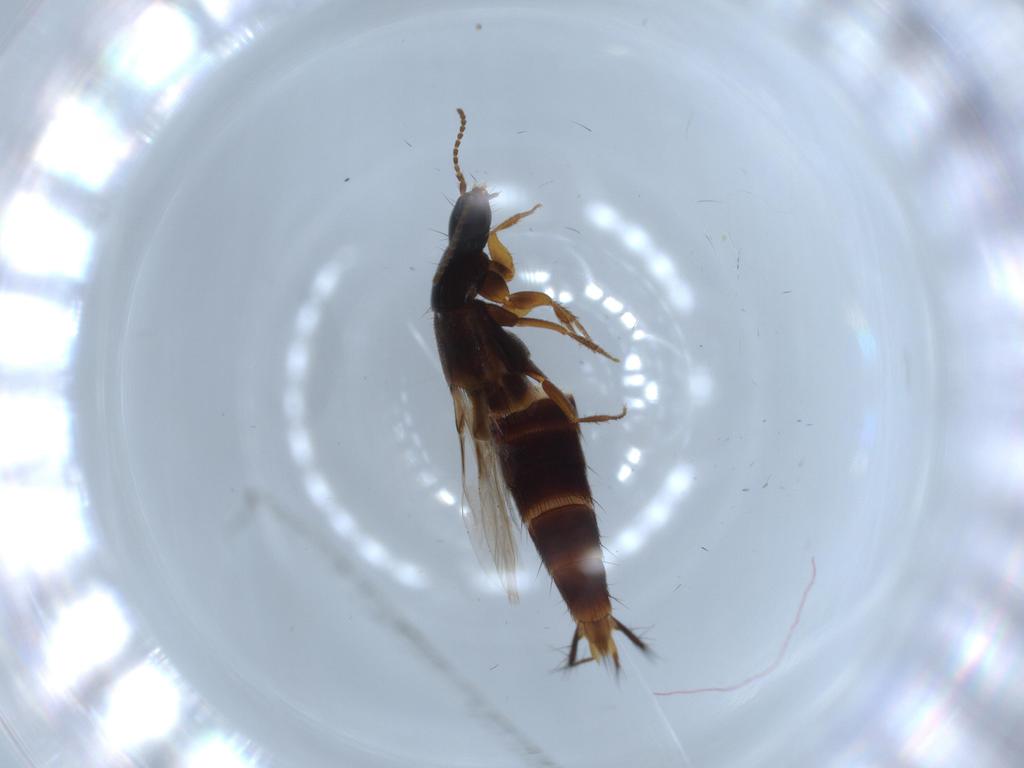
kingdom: Animalia
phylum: Arthropoda
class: Insecta
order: Coleoptera
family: Staphylinidae
